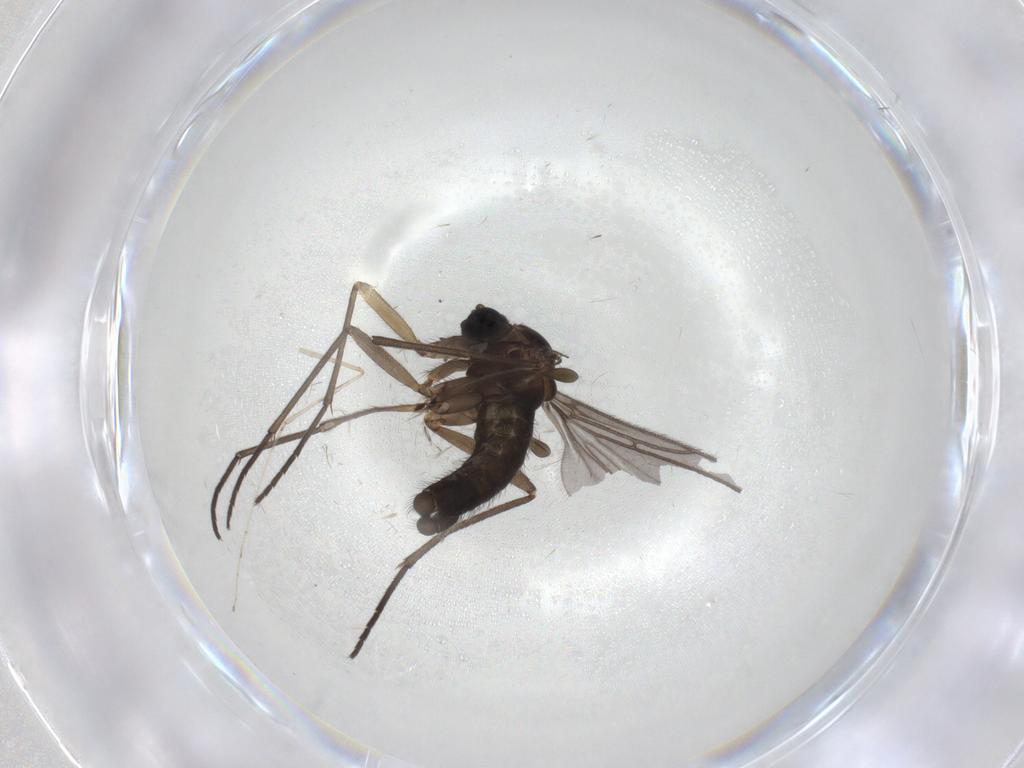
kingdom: Animalia
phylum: Arthropoda
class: Insecta
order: Diptera
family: Sciaridae
